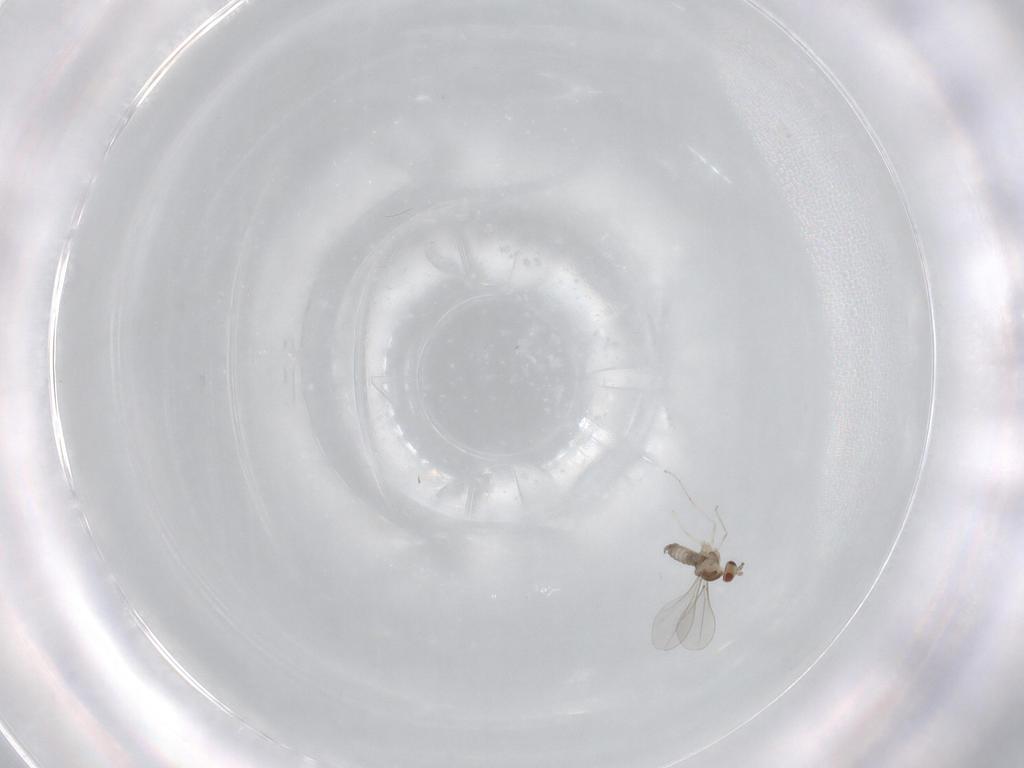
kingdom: Animalia
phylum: Arthropoda
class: Insecta
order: Diptera
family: Cecidomyiidae
